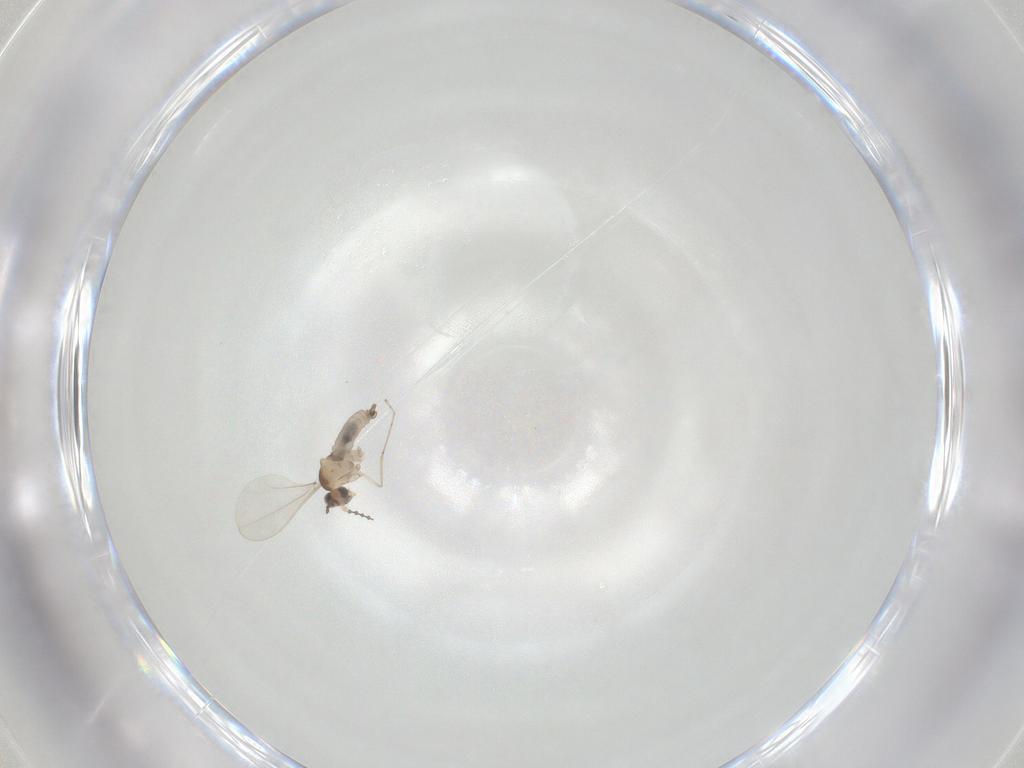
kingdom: Animalia
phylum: Arthropoda
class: Insecta
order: Diptera
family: Cecidomyiidae
